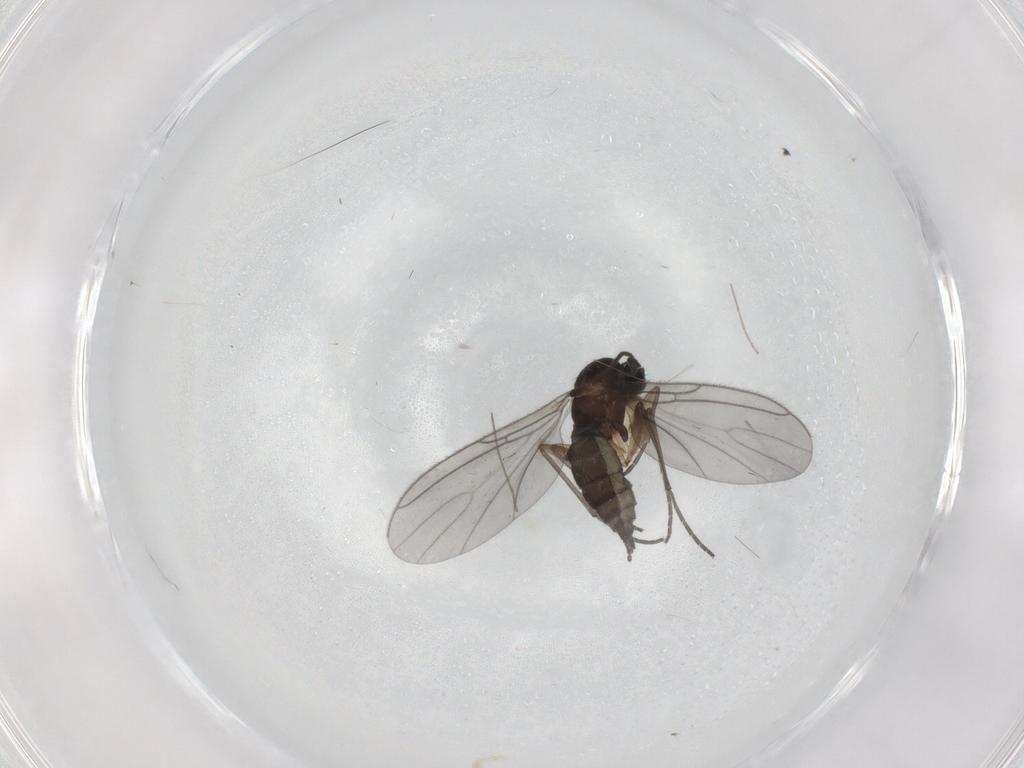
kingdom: Animalia
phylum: Arthropoda
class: Insecta
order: Diptera
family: Chironomidae
